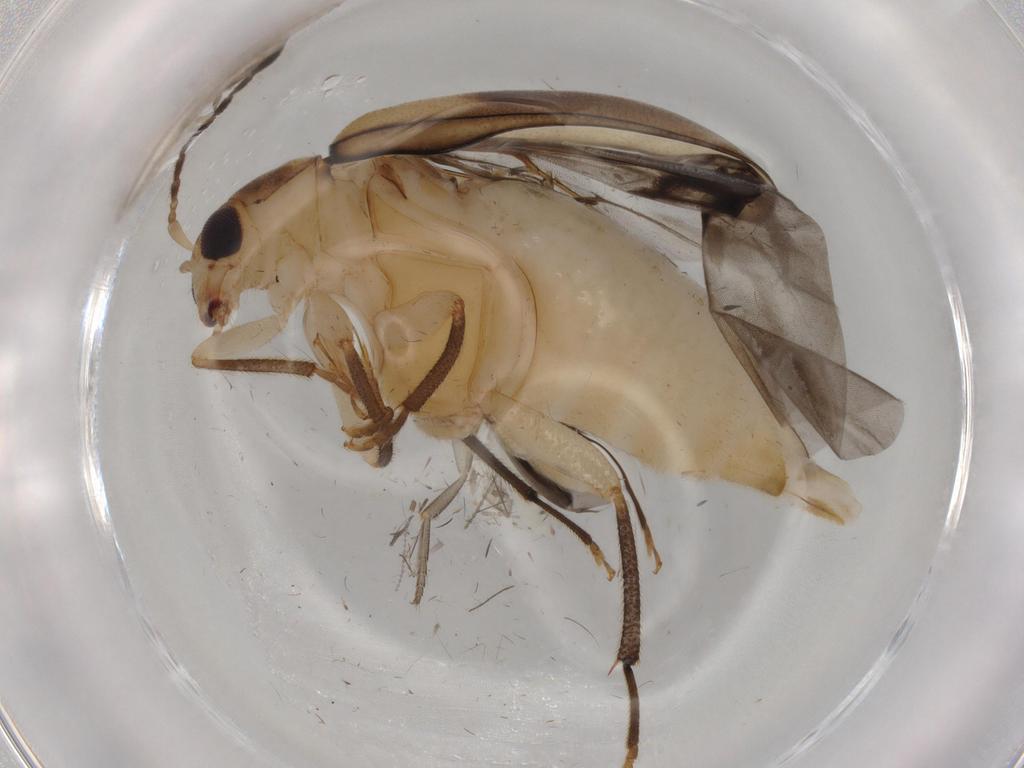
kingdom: Animalia
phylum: Arthropoda
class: Insecta
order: Coleoptera
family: Chrysomelidae
